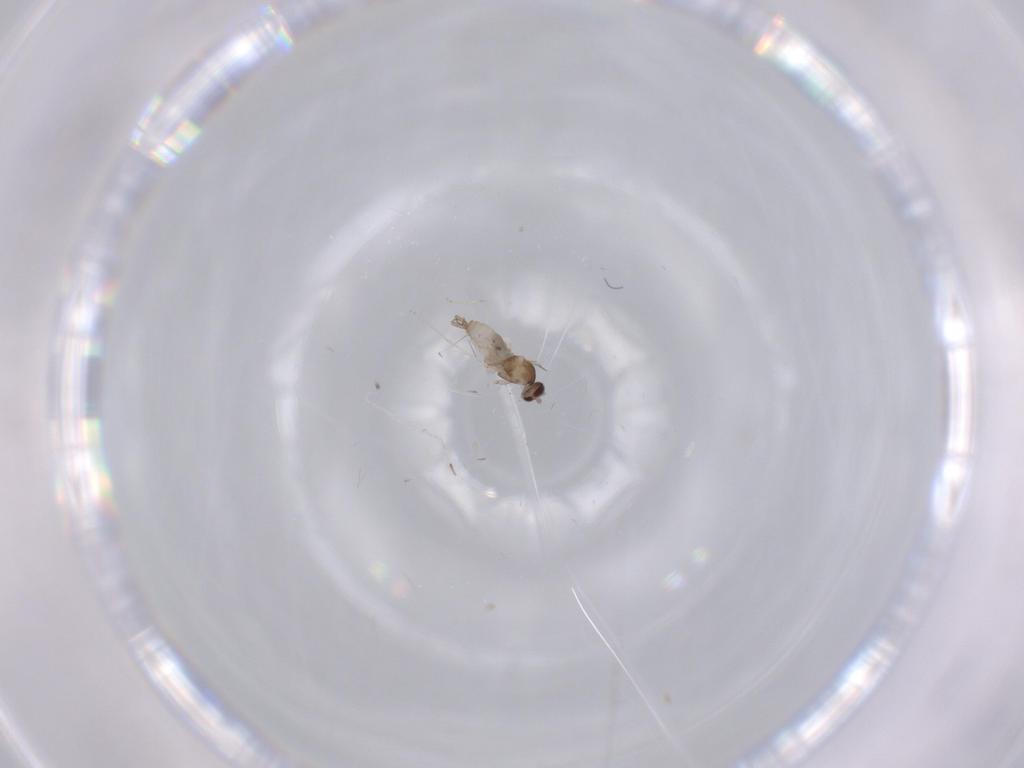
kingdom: Animalia
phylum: Arthropoda
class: Insecta
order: Diptera
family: Cecidomyiidae
